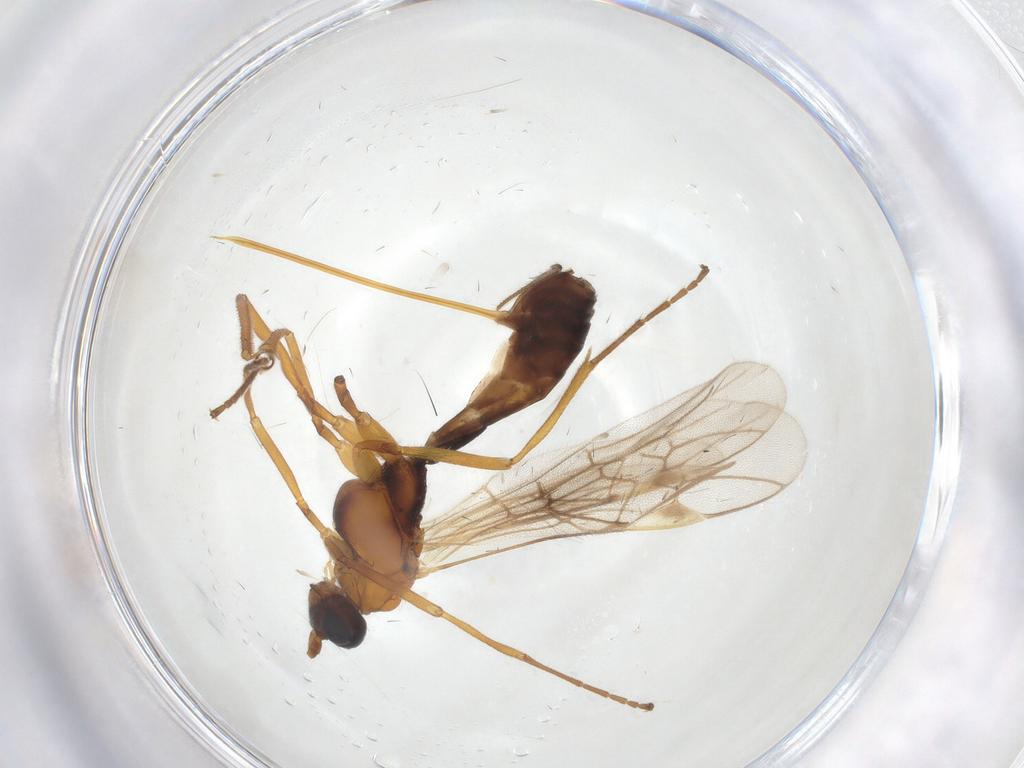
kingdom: Animalia
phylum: Arthropoda
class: Insecta
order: Hymenoptera
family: Braconidae
